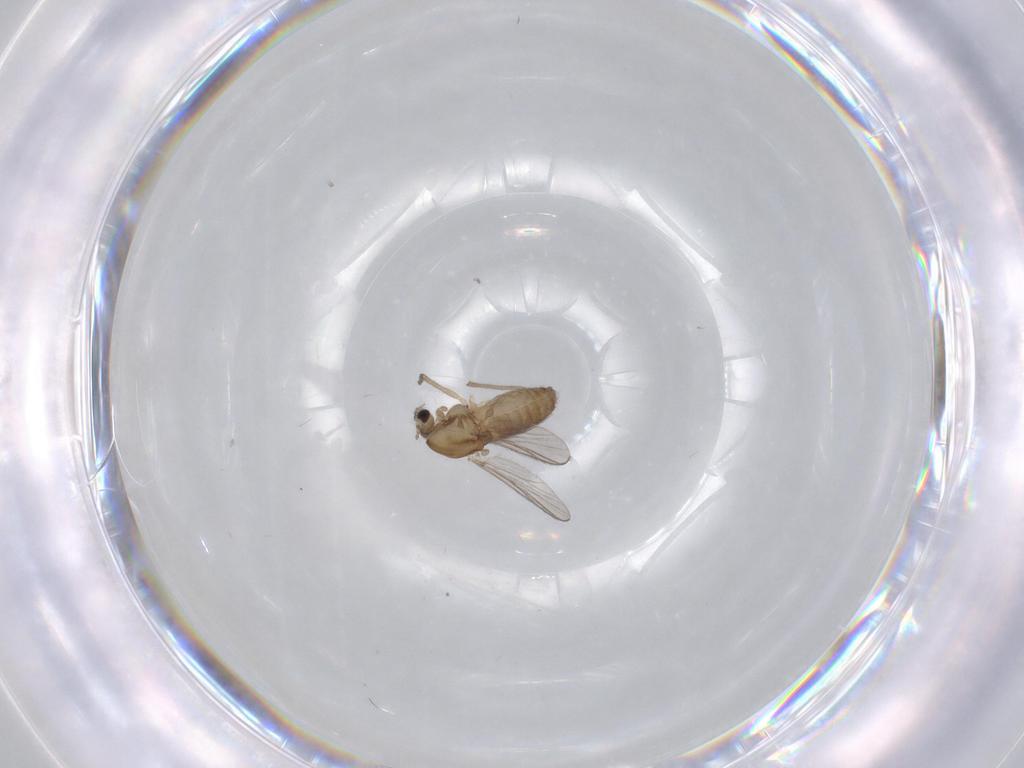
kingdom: Animalia
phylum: Arthropoda
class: Insecta
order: Diptera
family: Chironomidae
